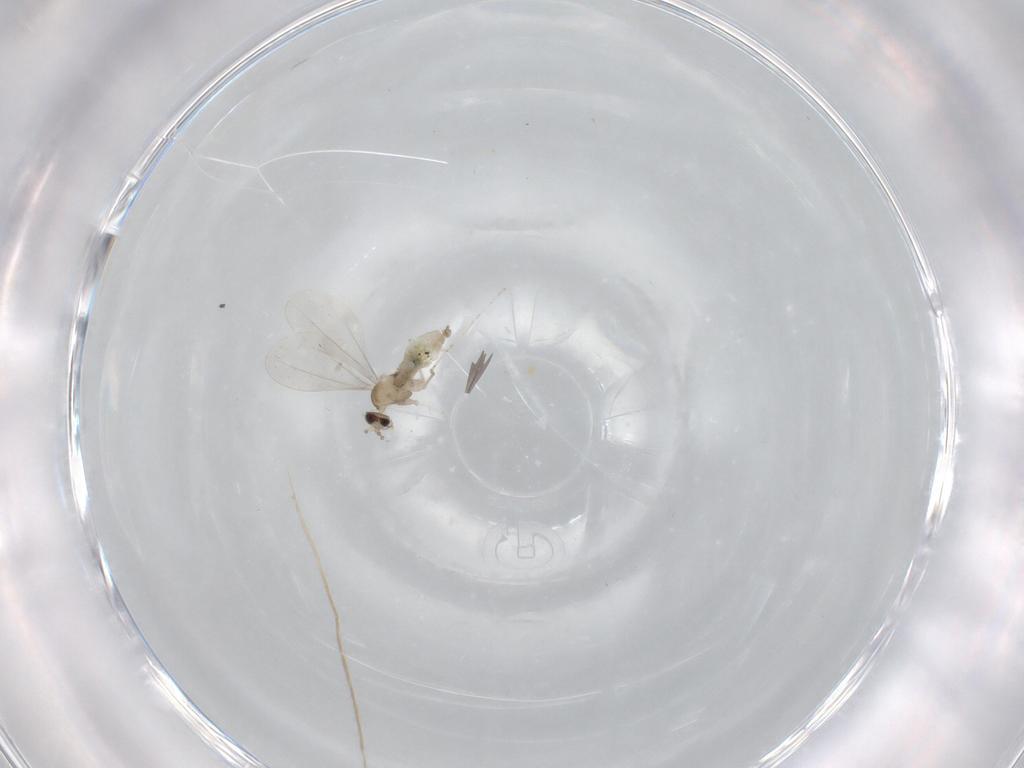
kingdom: Animalia
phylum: Arthropoda
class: Insecta
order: Diptera
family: Cecidomyiidae
